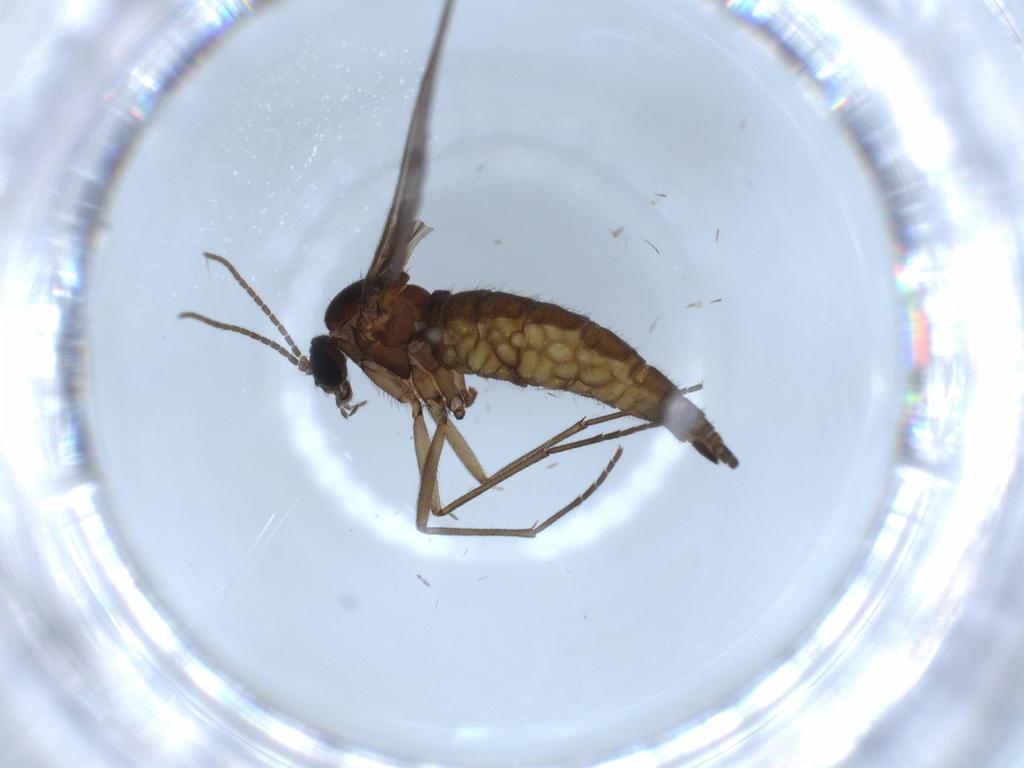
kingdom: Animalia
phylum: Arthropoda
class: Insecta
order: Diptera
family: Sciaridae
